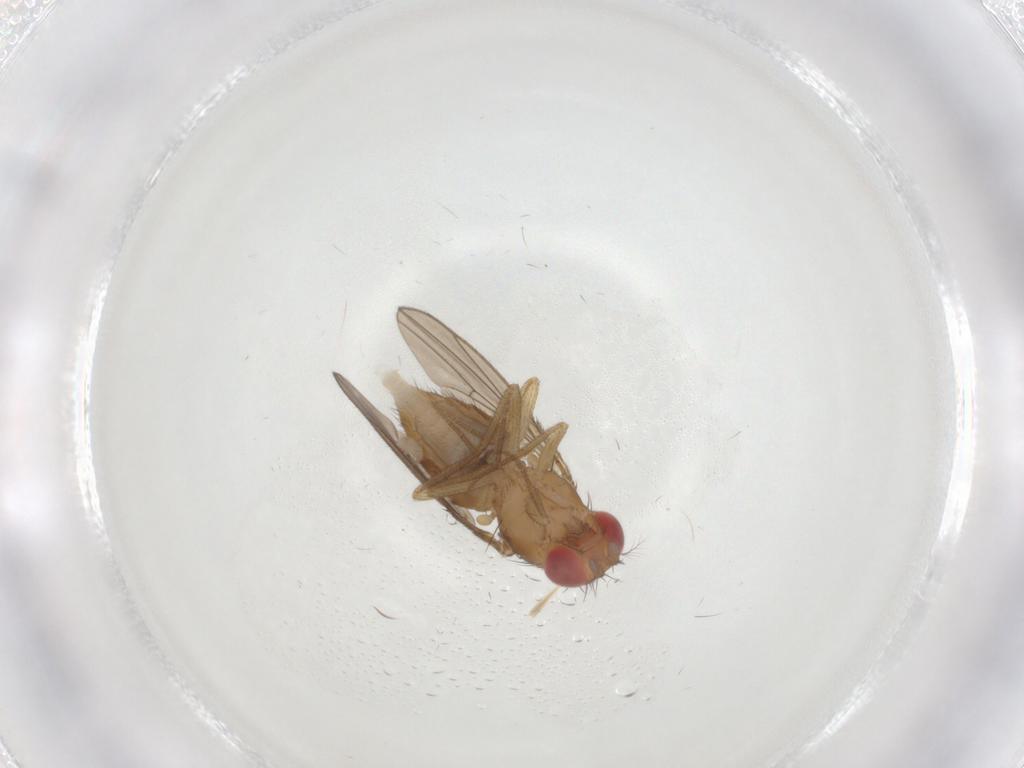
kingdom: Animalia
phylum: Arthropoda
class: Insecta
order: Diptera
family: Drosophilidae
